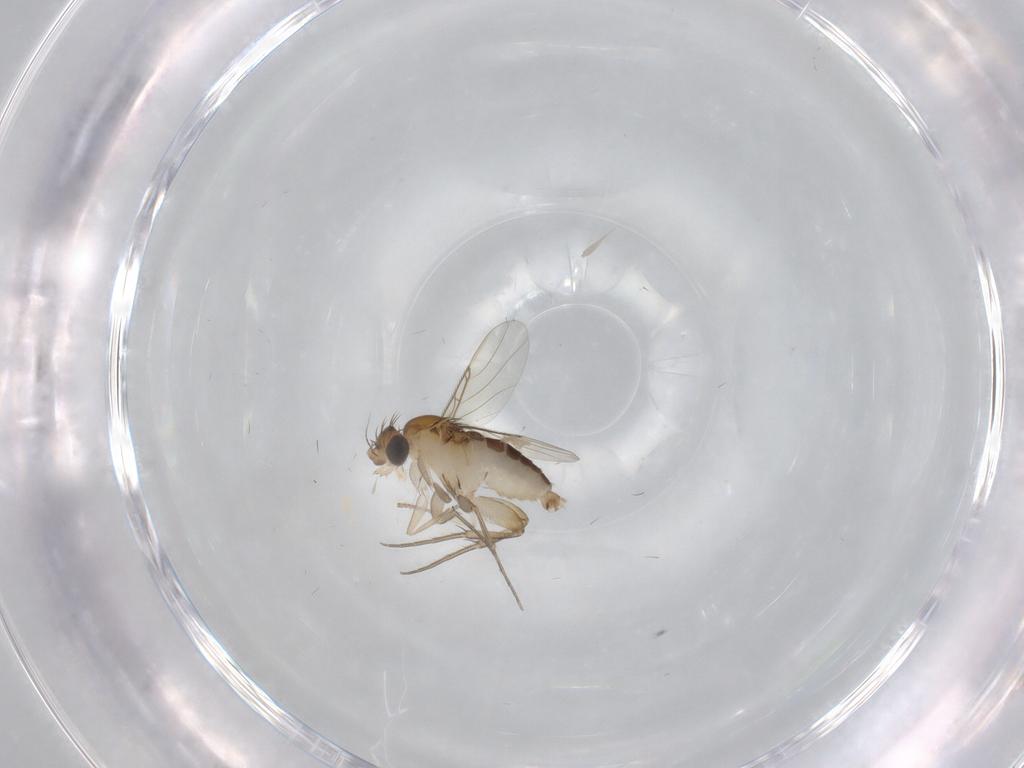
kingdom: Animalia
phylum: Arthropoda
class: Insecta
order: Diptera
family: Phoridae
